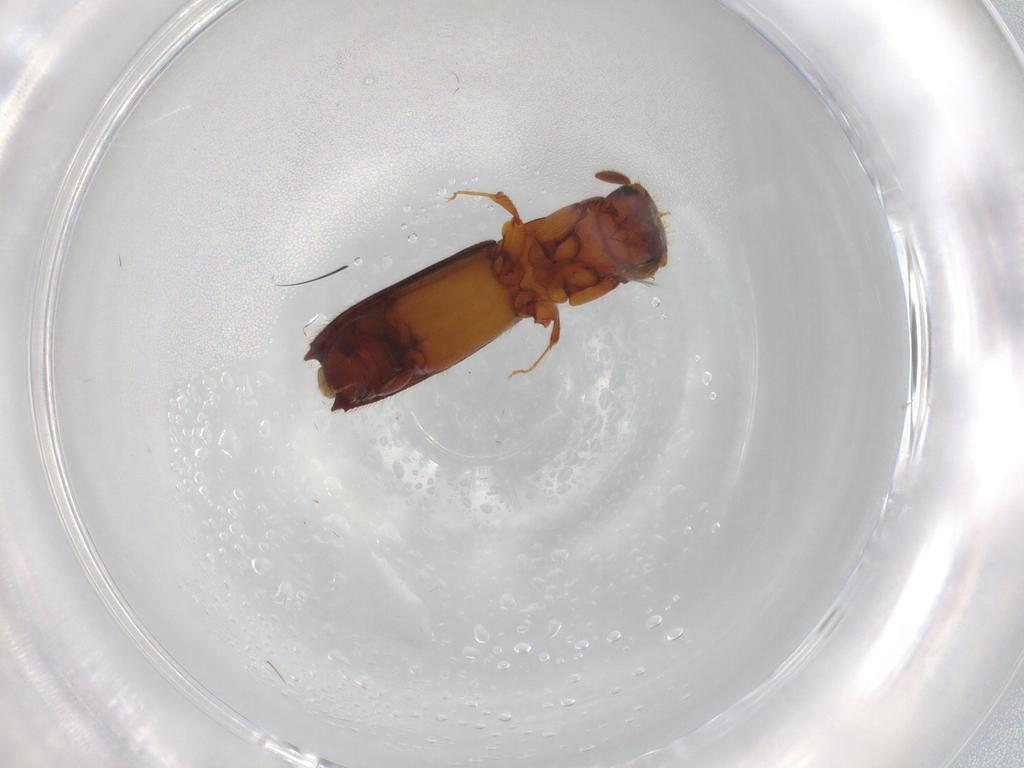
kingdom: Animalia
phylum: Arthropoda
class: Insecta
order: Coleoptera
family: Curculionidae
